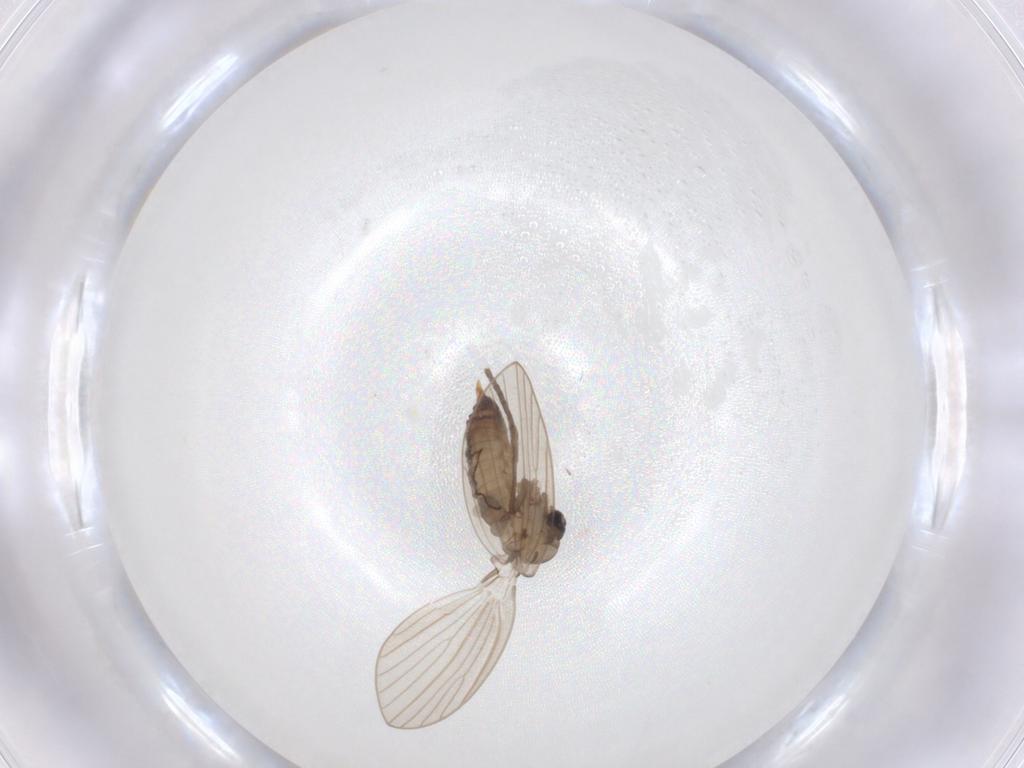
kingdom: Animalia
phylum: Arthropoda
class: Insecta
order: Diptera
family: Psychodidae
